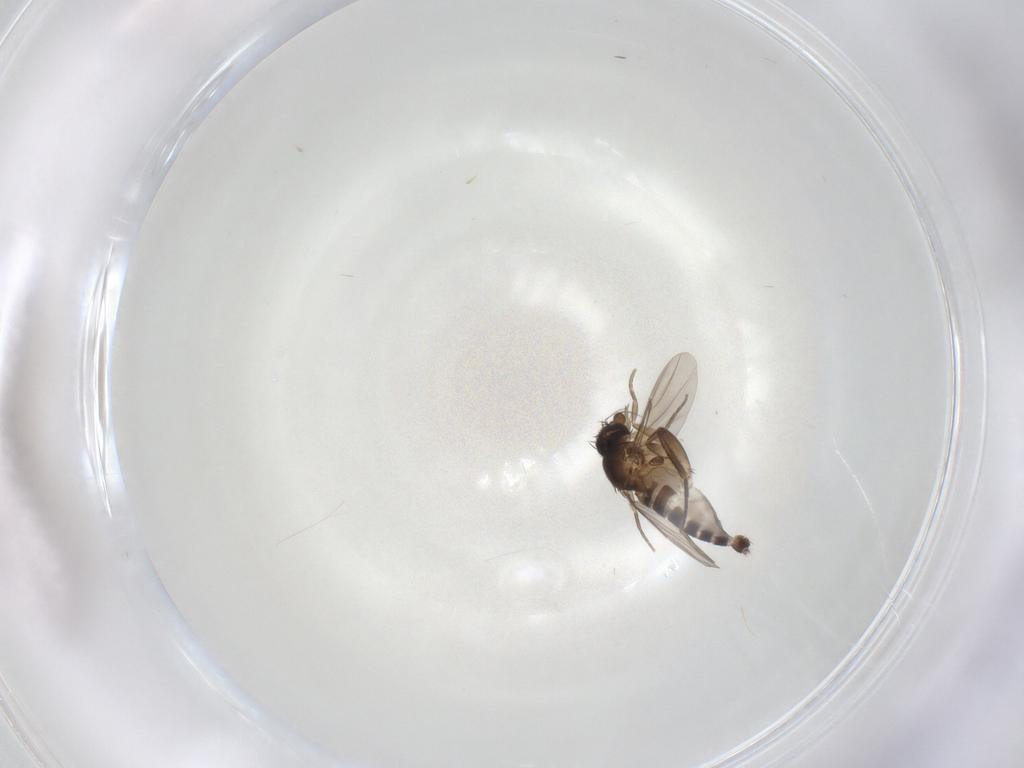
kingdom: Animalia
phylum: Arthropoda
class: Insecta
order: Diptera
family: Phoridae
